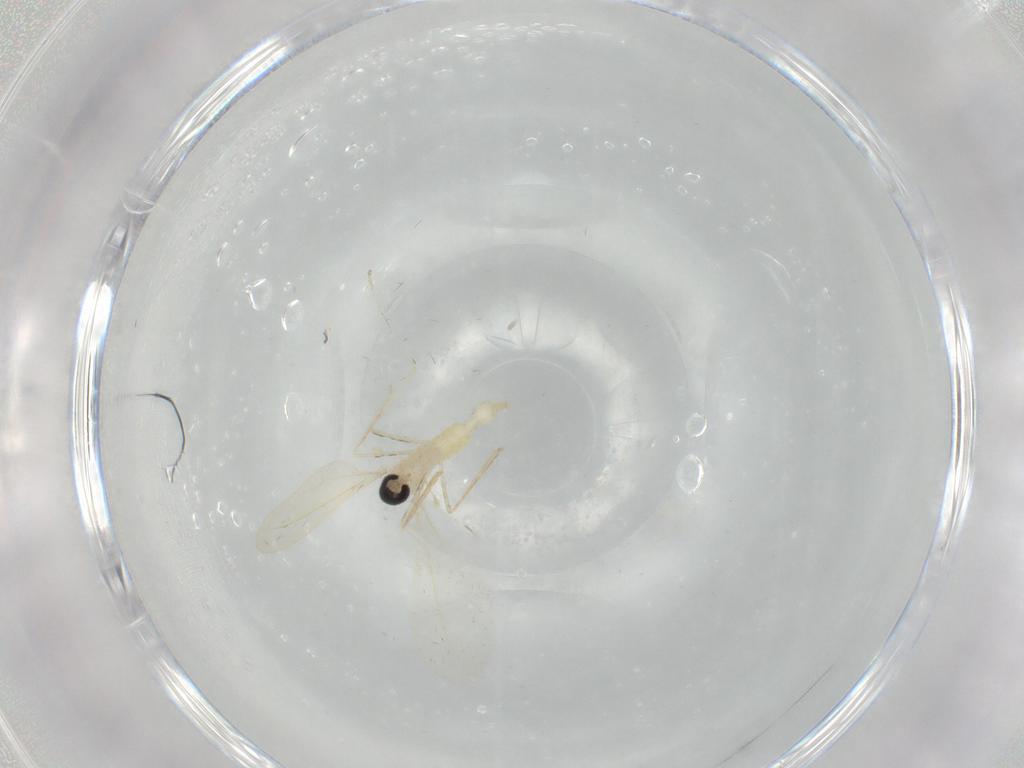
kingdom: Animalia
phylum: Arthropoda
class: Insecta
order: Diptera
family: Cecidomyiidae
